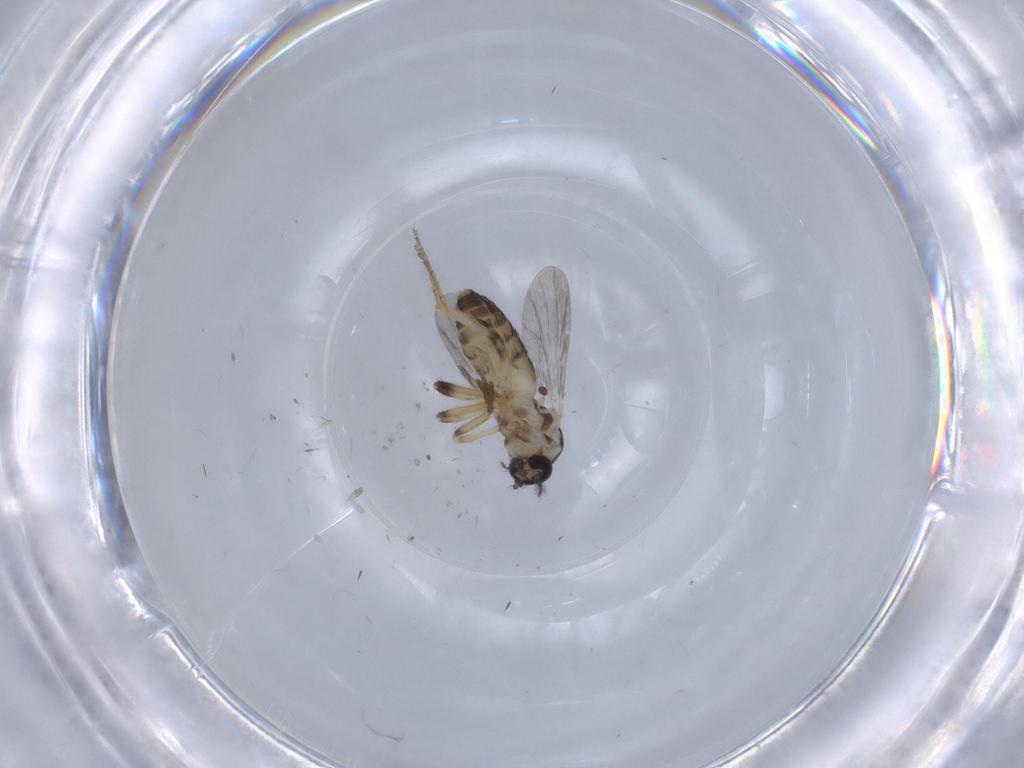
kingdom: Animalia
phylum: Arthropoda
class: Insecta
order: Diptera
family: Ceratopogonidae
